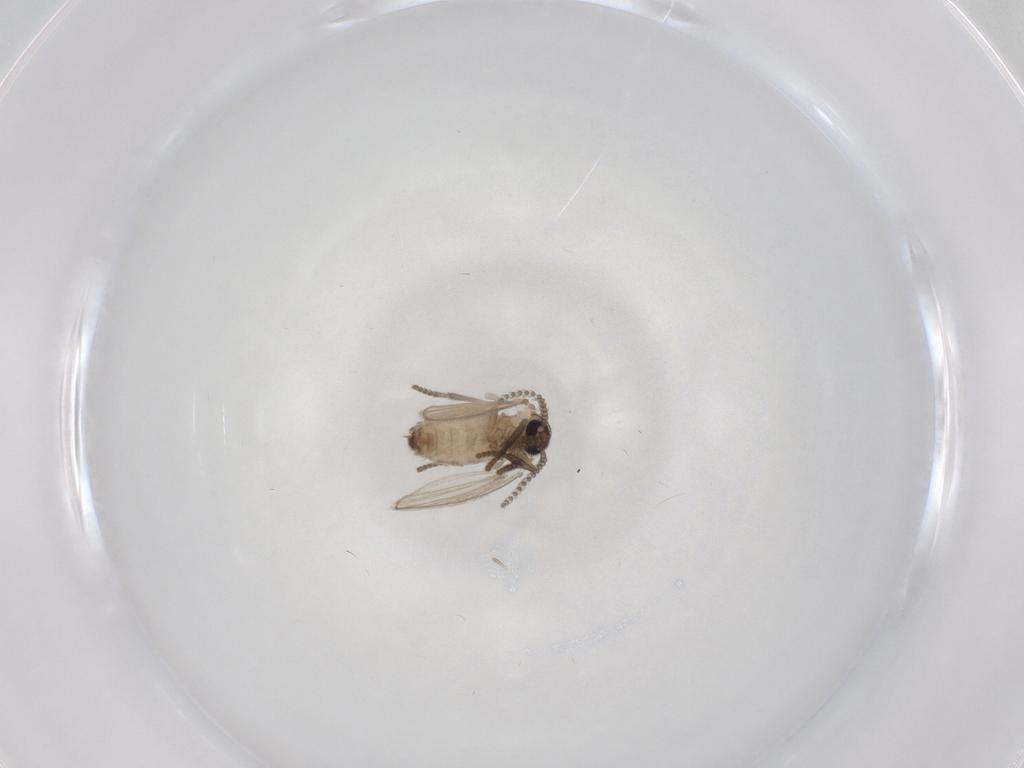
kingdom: Animalia
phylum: Arthropoda
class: Insecta
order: Diptera
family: Psychodidae
